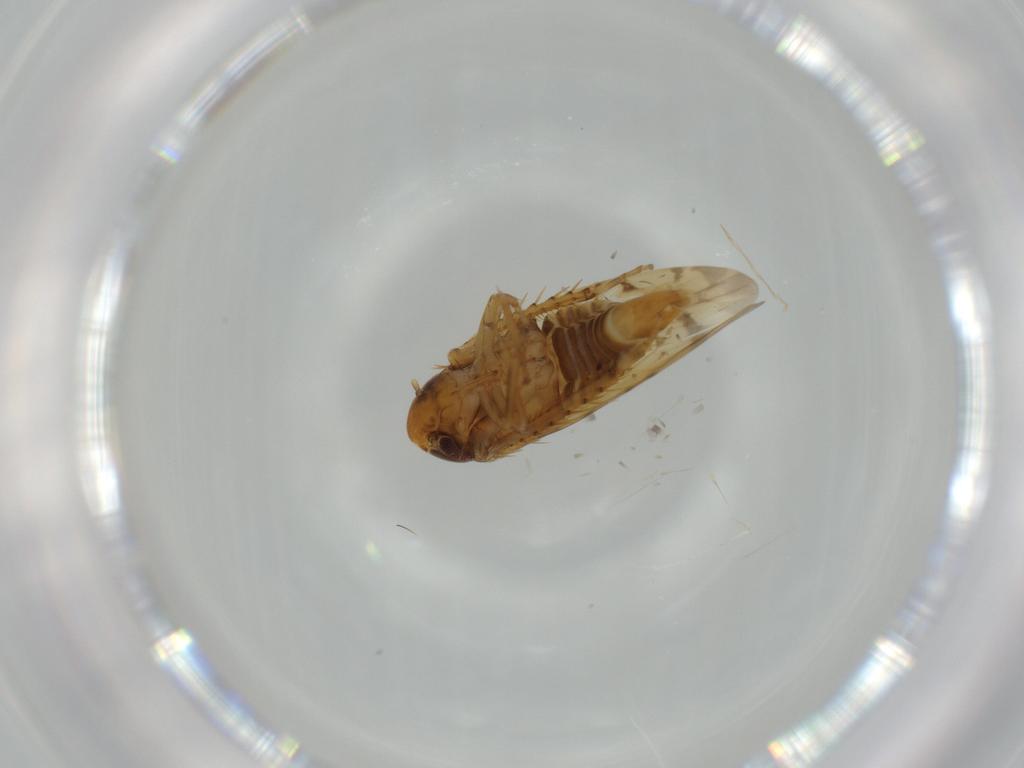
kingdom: Animalia
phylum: Arthropoda
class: Insecta
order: Hemiptera
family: Cicadellidae
